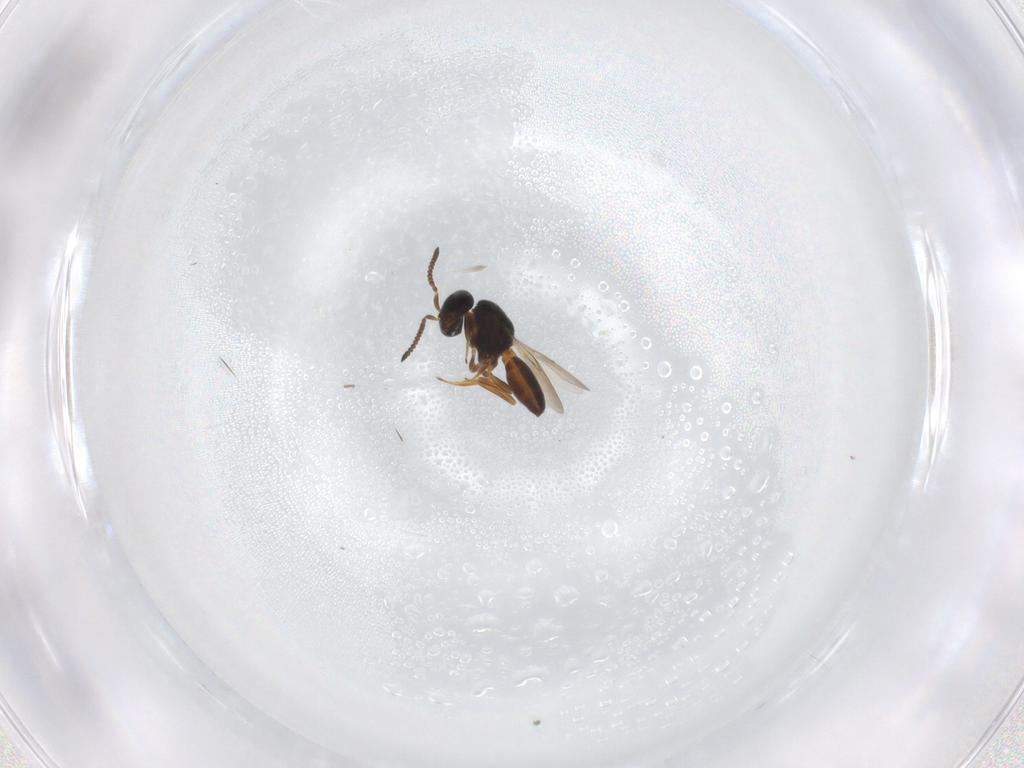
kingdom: Animalia
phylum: Arthropoda
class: Insecta
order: Hymenoptera
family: Scelionidae
